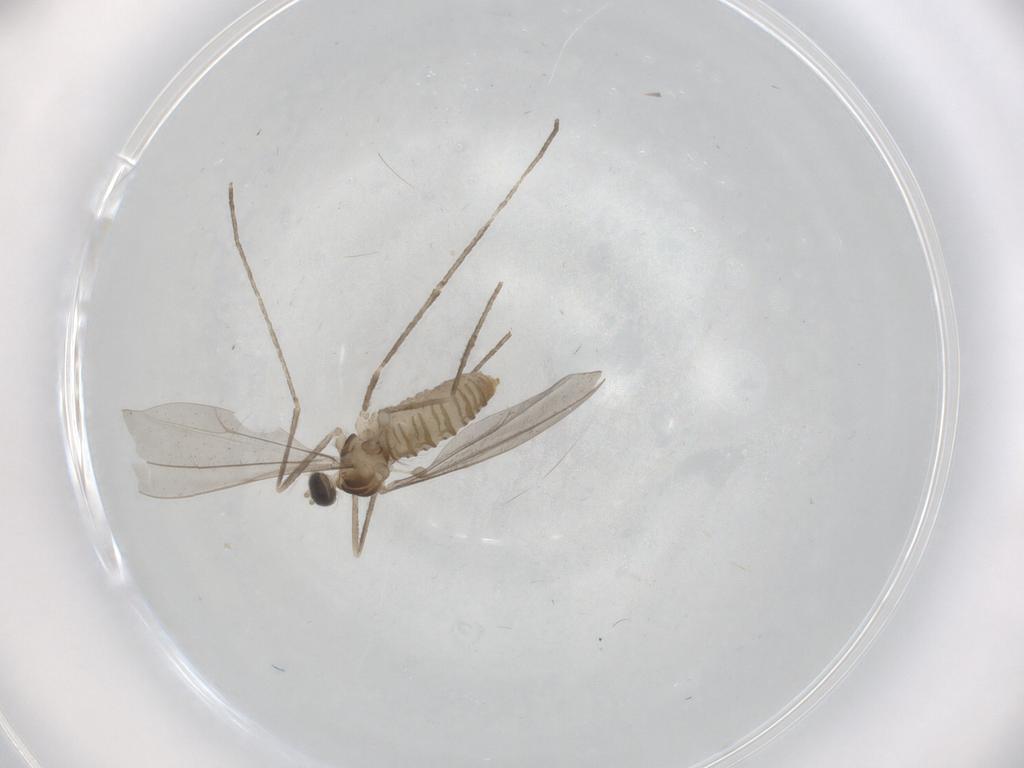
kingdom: Animalia
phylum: Arthropoda
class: Insecta
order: Diptera
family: Cecidomyiidae
